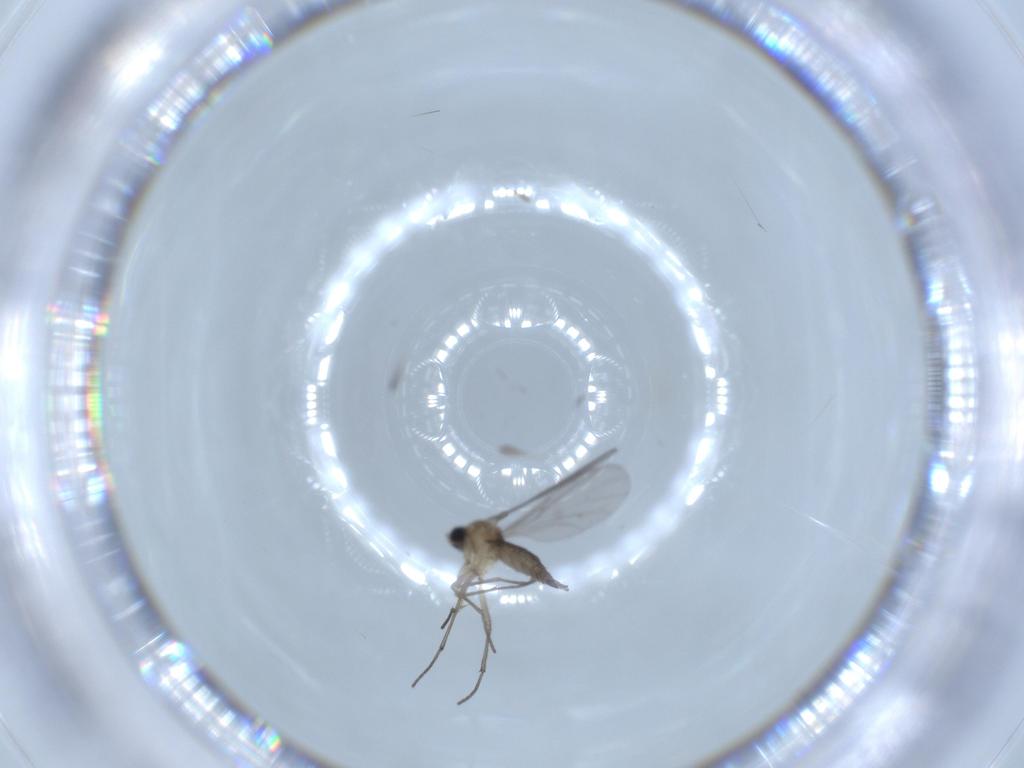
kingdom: Animalia
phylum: Arthropoda
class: Insecta
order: Diptera
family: Sciaridae
